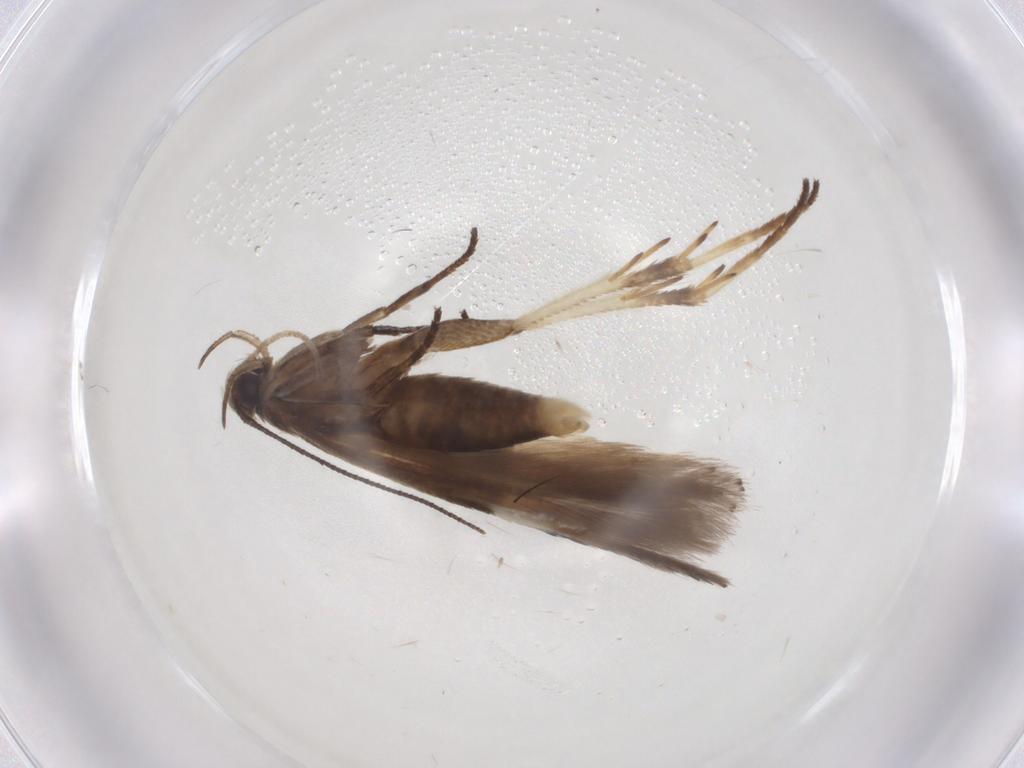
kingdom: Animalia
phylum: Arthropoda
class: Insecta
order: Lepidoptera
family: Gelechiidae
